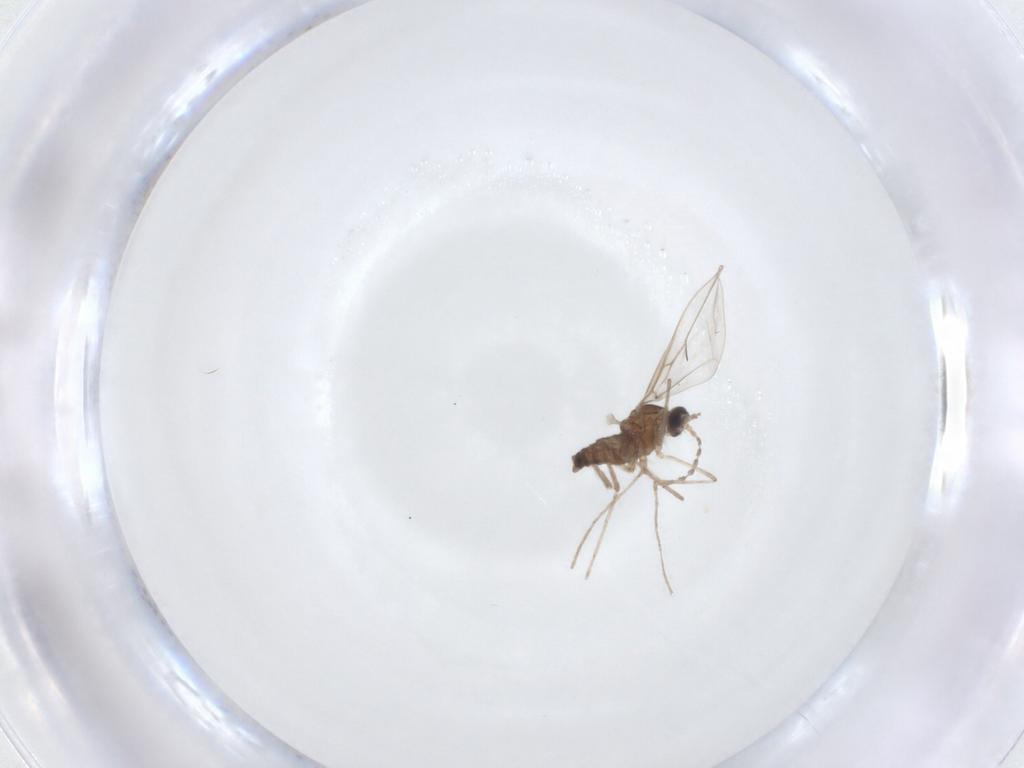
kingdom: Animalia
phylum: Arthropoda
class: Insecta
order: Diptera
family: Cecidomyiidae
